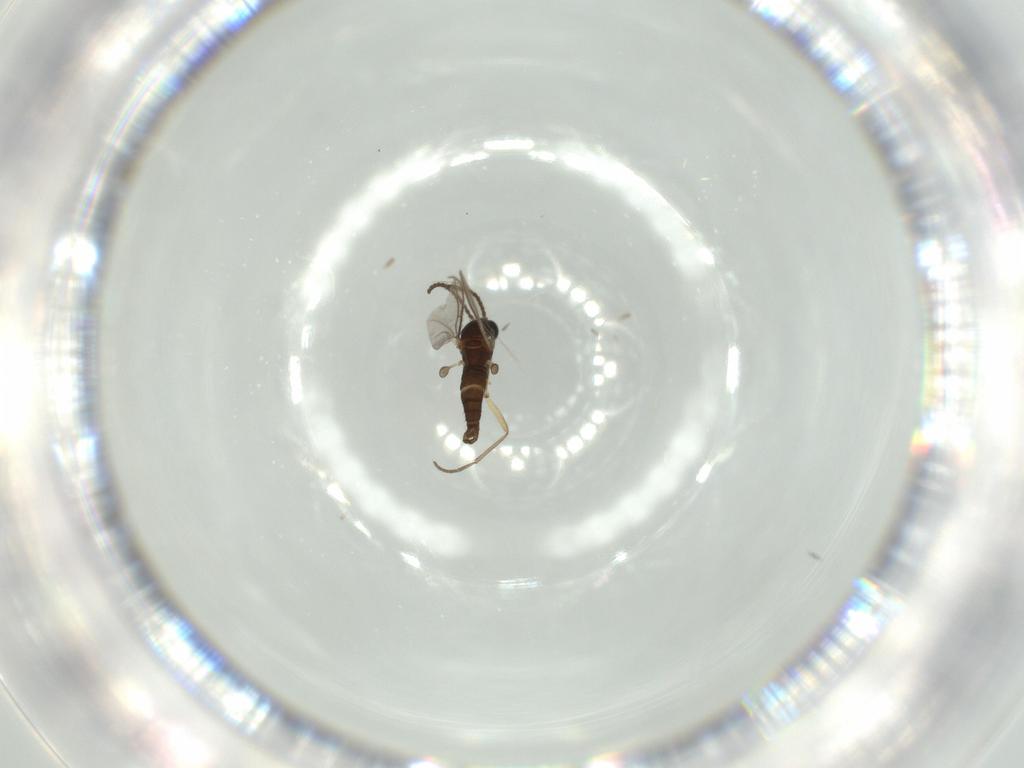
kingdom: Animalia
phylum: Arthropoda
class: Insecta
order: Diptera
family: Sciaridae
